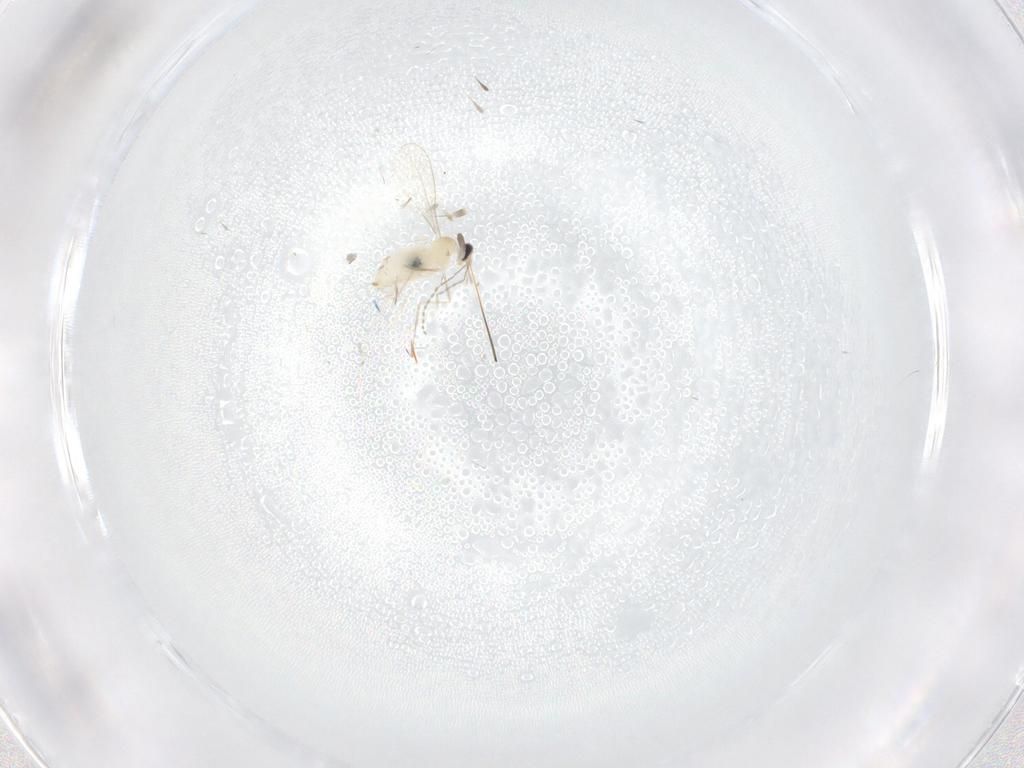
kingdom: Animalia
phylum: Arthropoda
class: Insecta
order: Diptera
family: Cecidomyiidae
